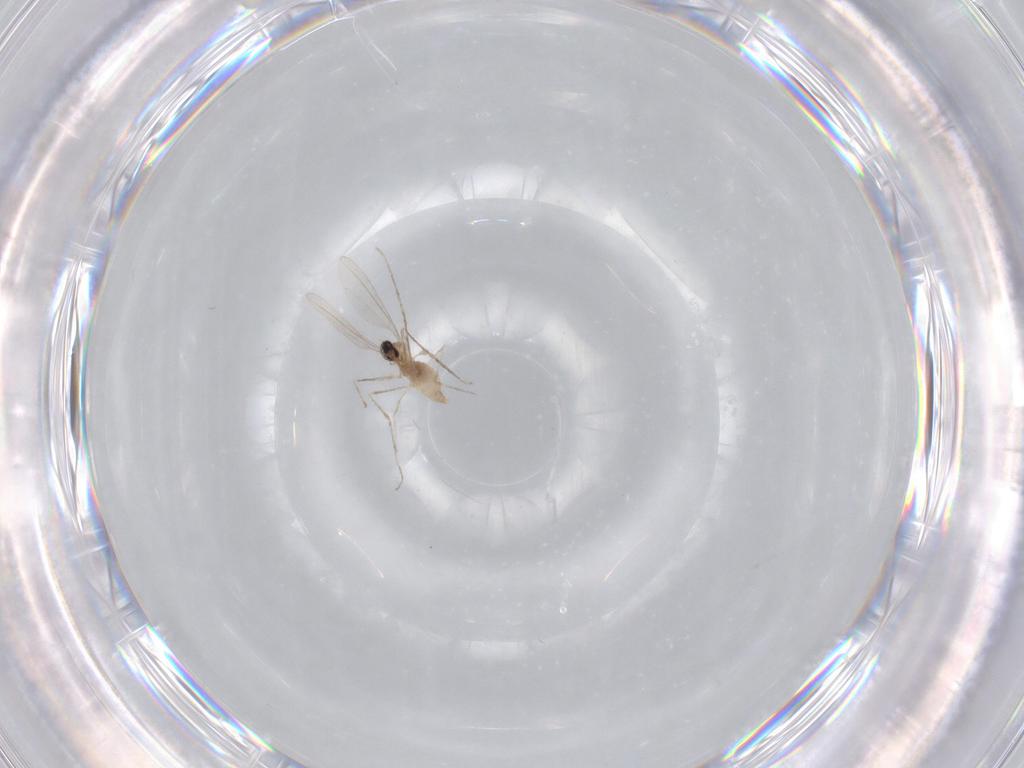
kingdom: Animalia
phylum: Arthropoda
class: Insecta
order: Diptera
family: Cecidomyiidae
